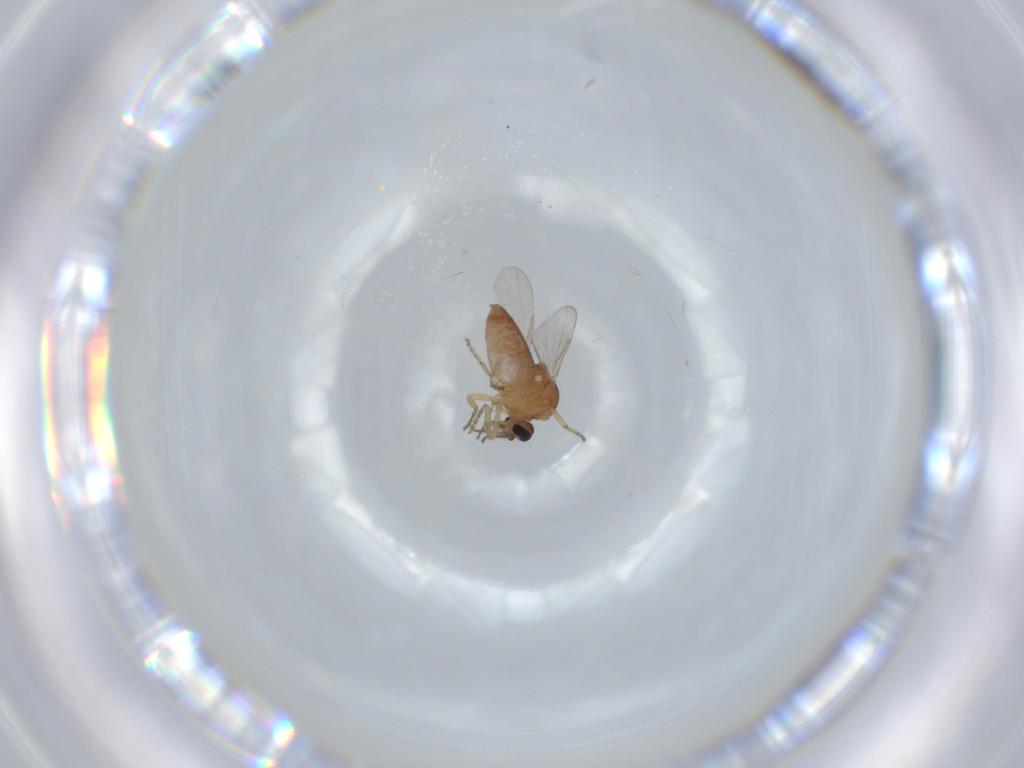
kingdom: Animalia
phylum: Arthropoda
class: Insecta
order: Diptera
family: Ceratopogonidae
